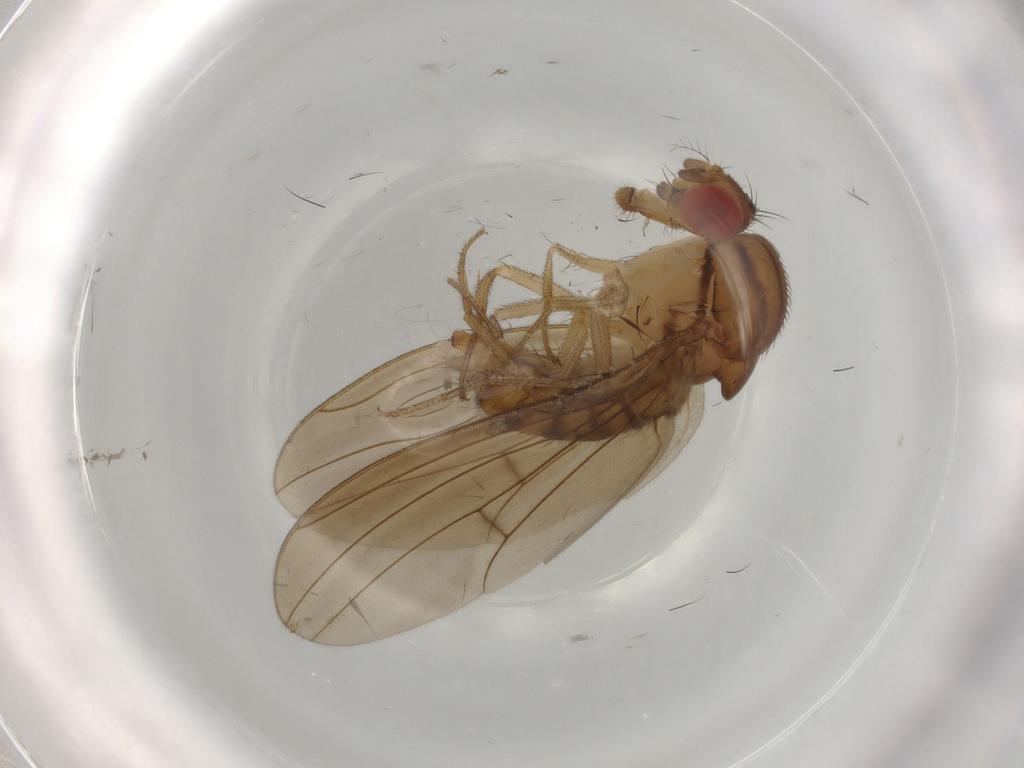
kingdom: Animalia
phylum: Arthropoda
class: Insecta
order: Diptera
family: Drosophilidae
